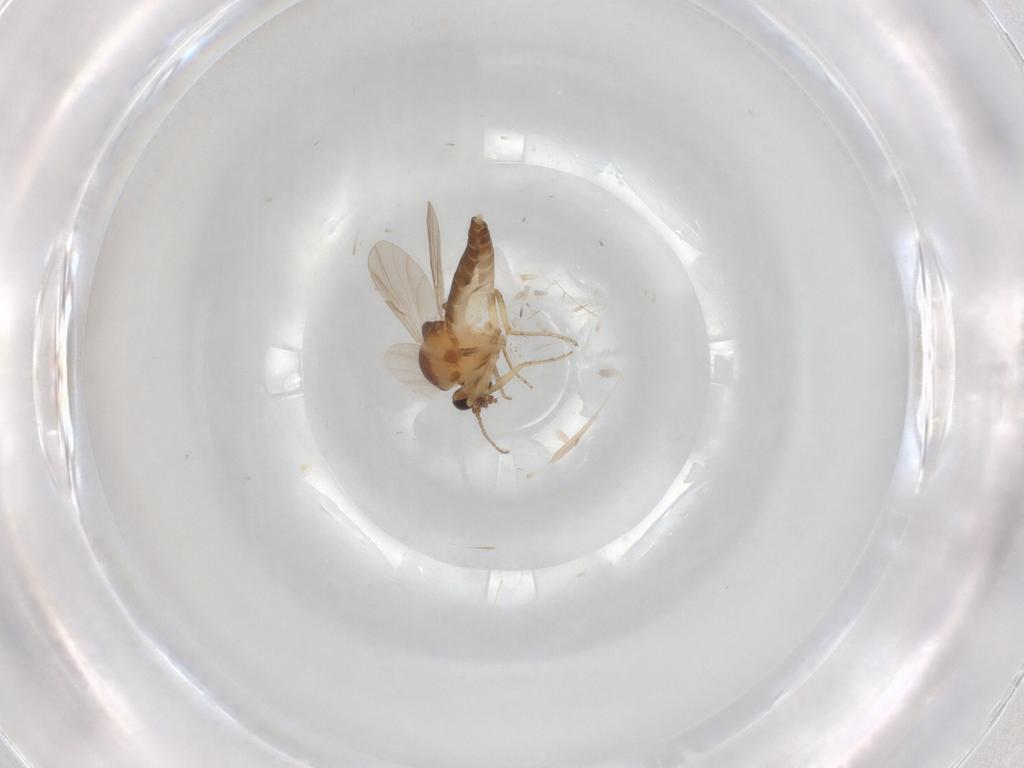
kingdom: Animalia
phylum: Arthropoda
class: Insecta
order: Diptera
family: Ceratopogonidae
